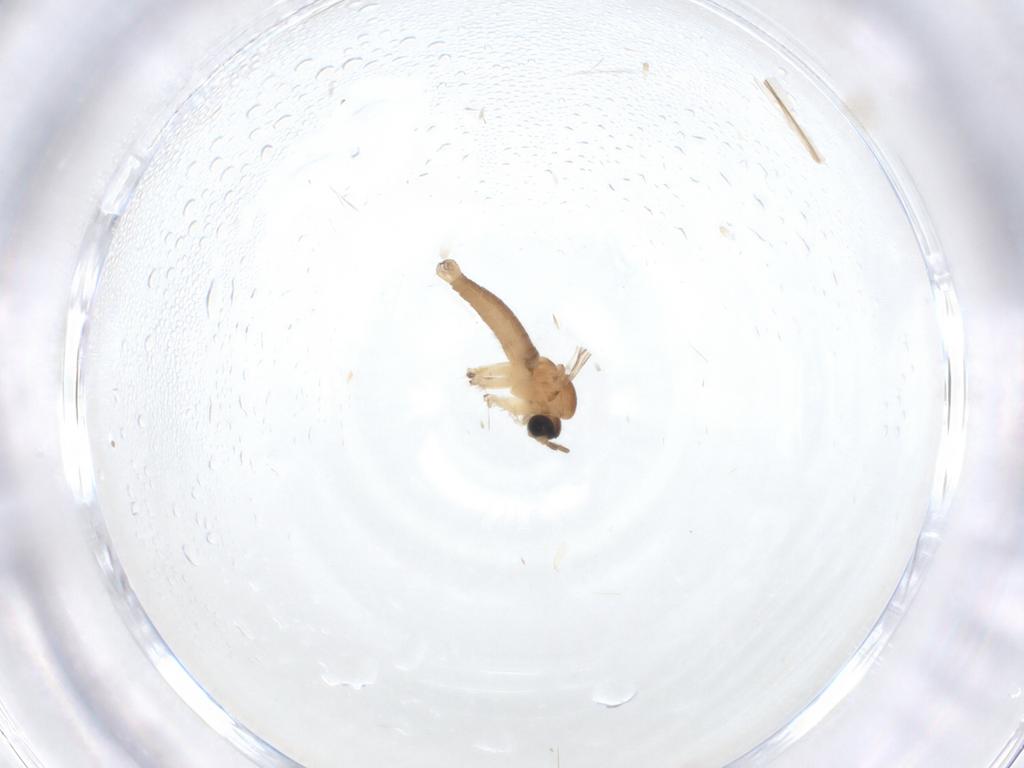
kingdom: Animalia
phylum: Arthropoda
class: Insecta
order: Diptera
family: Sciaridae
